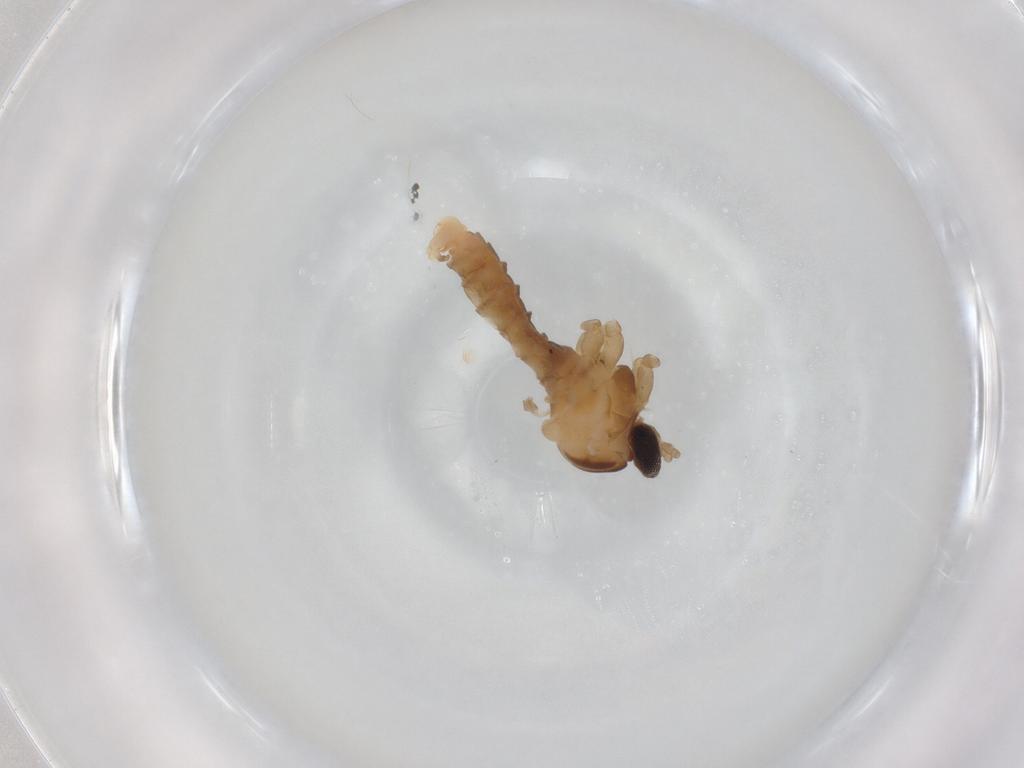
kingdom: Animalia
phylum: Arthropoda
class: Insecta
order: Diptera
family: Cecidomyiidae
